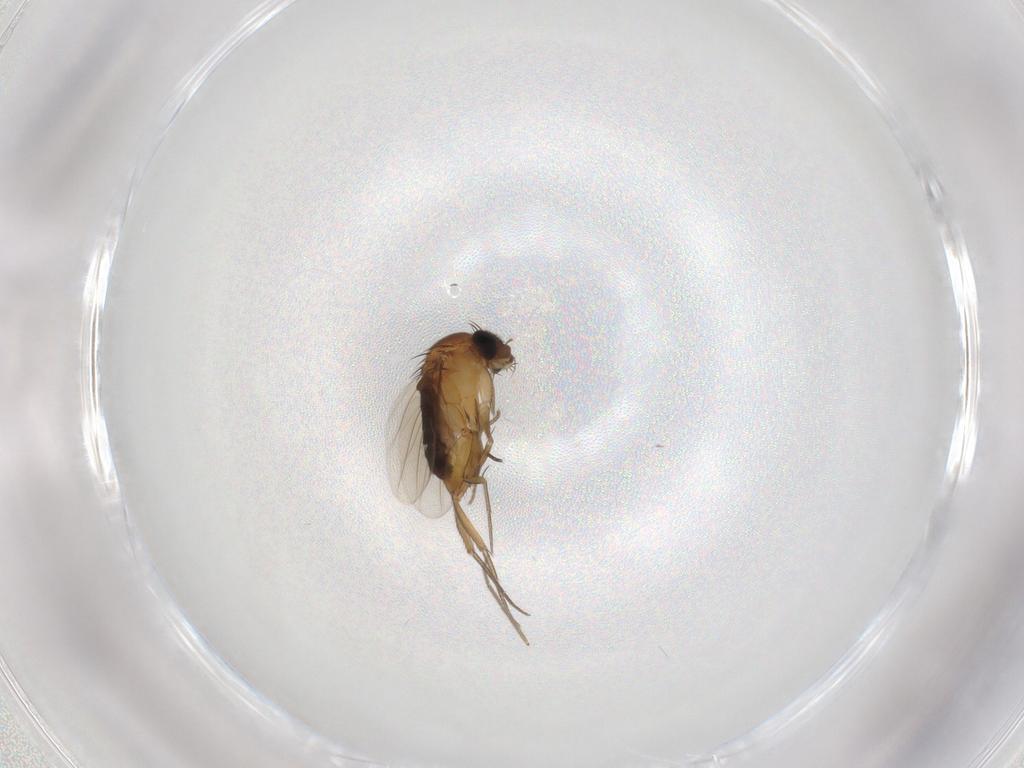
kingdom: Animalia
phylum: Arthropoda
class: Insecta
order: Diptera
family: Phoridae
